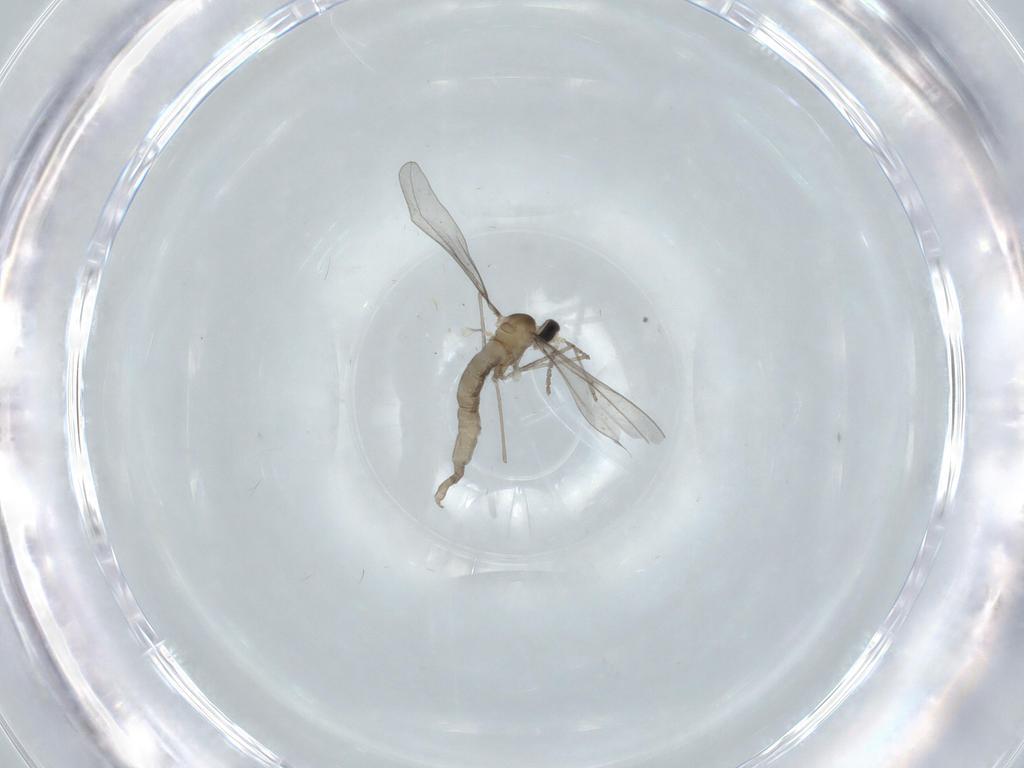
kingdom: Animalia
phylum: Arthropoda
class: Insecta
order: Diptera
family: Cecidomyiidae
